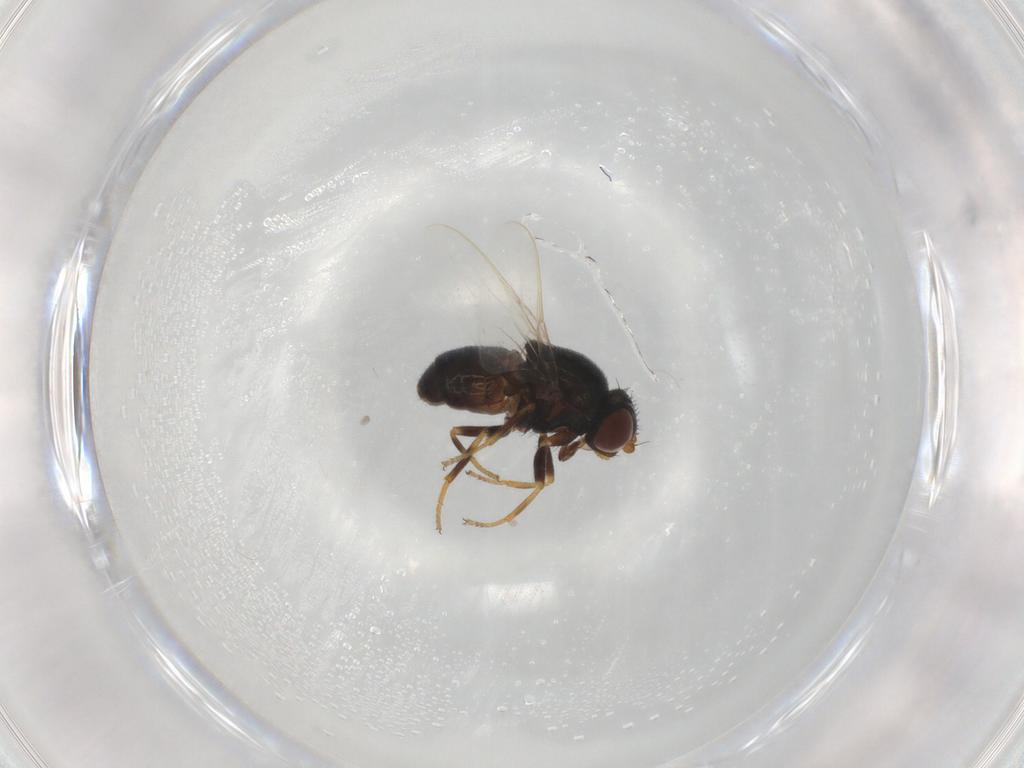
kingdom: Animalia
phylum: Arthropoda
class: Insecta
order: Diptera
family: Chloropidae
